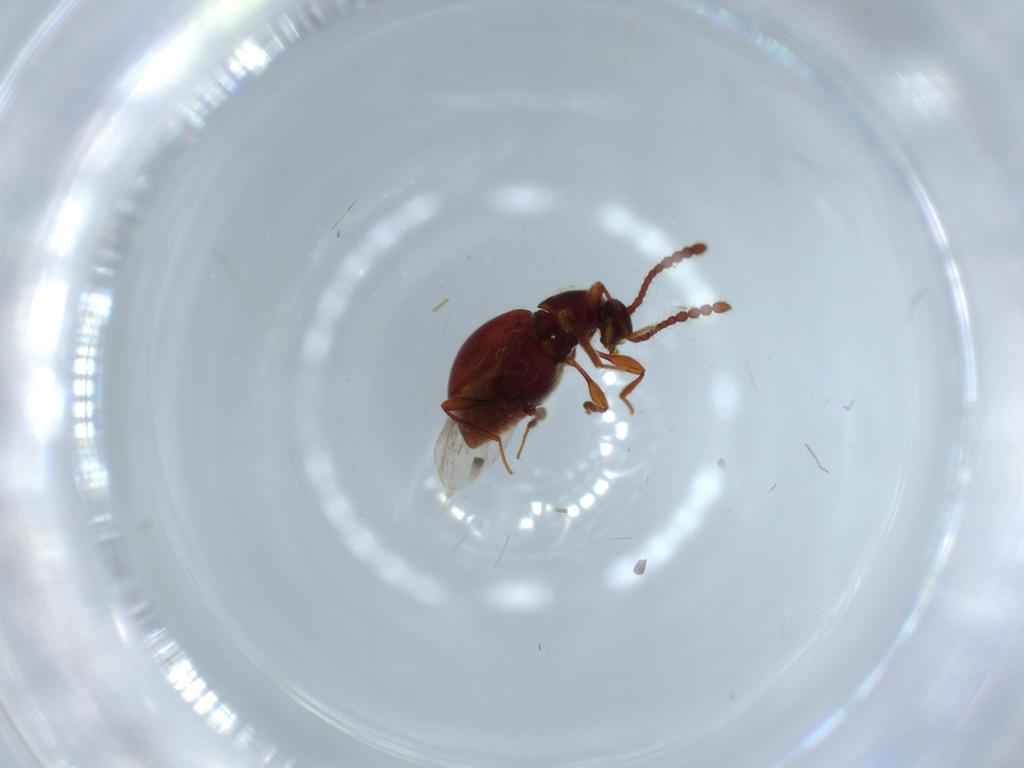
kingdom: Animalia
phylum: Arthropoda
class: Insecta
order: Coleoptera
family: Staphylinidae
